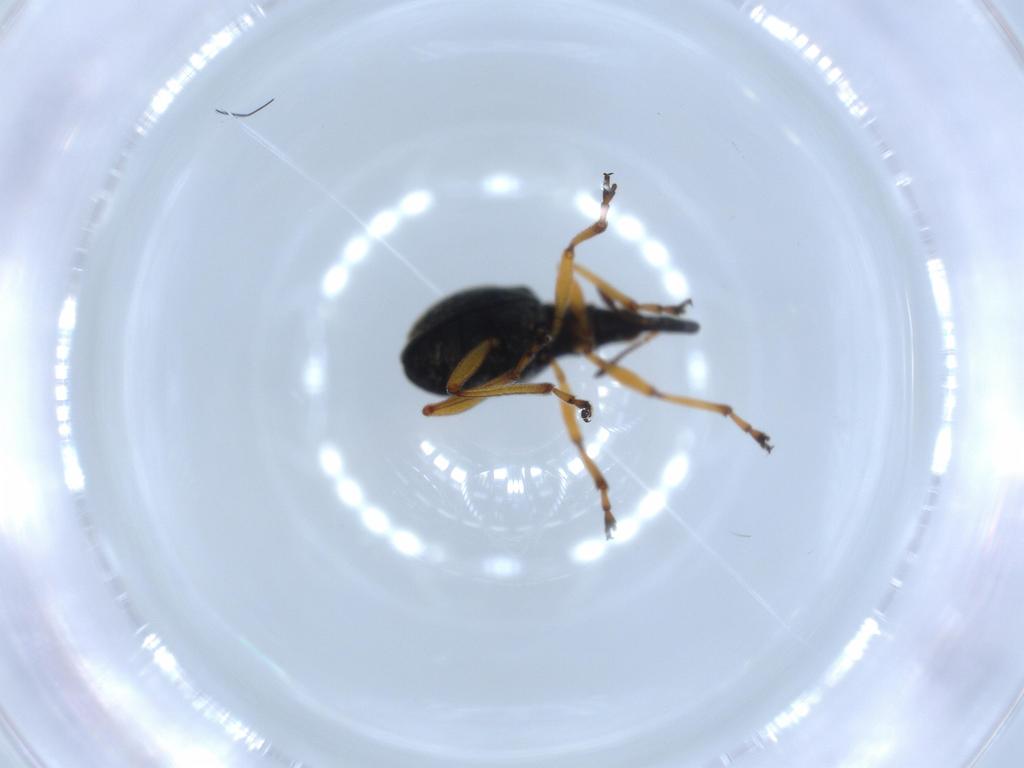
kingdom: Animalia
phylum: Arthropoda
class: Insecta
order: Coleoptera
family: Brentidae
